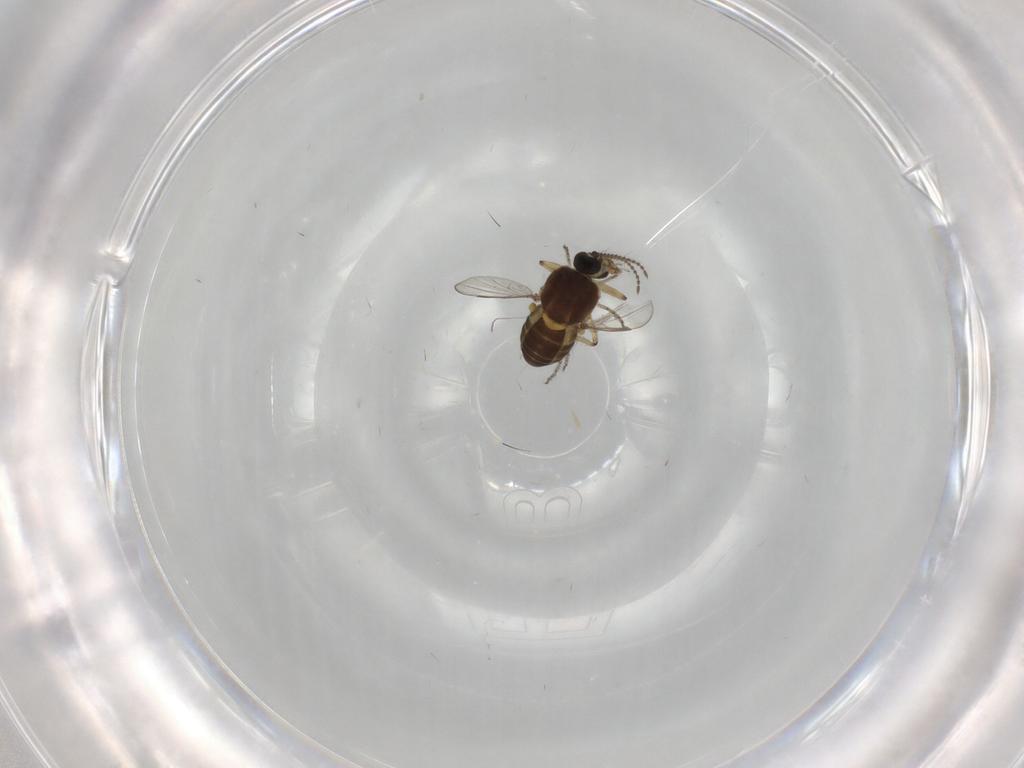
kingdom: Animalia
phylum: Arthropoda
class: Insecta
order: Diptera
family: Ceratopogonidae
